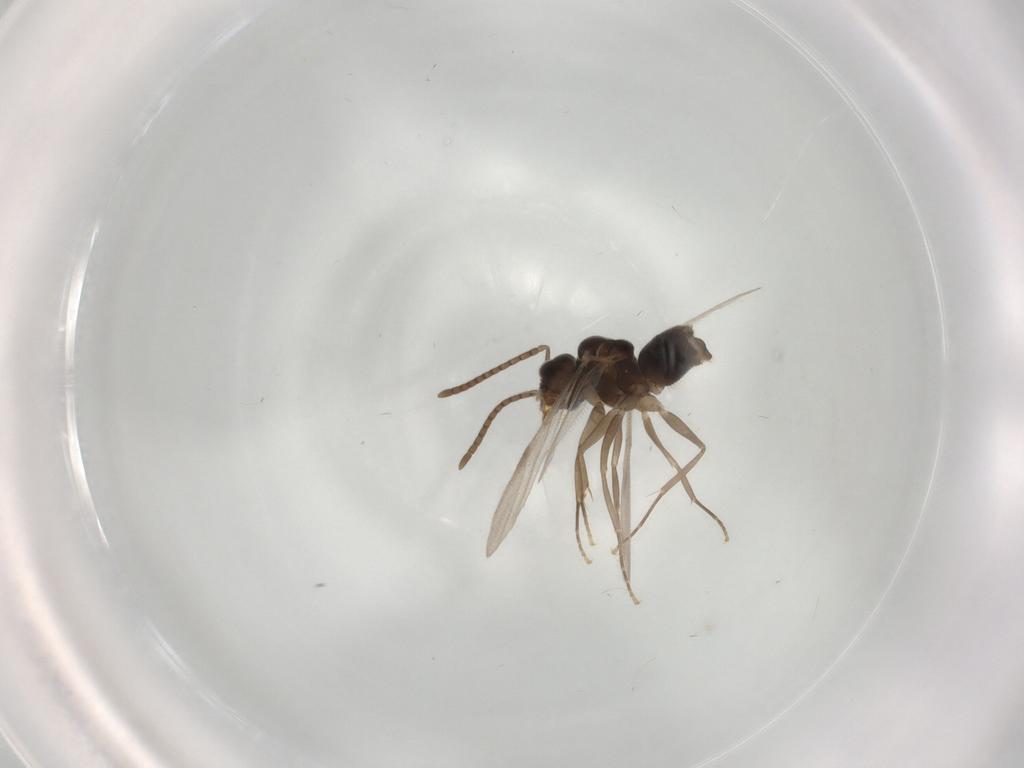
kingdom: Animalia
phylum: Arthropoda
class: Insecta
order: Hymenoptera
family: Formicidae
